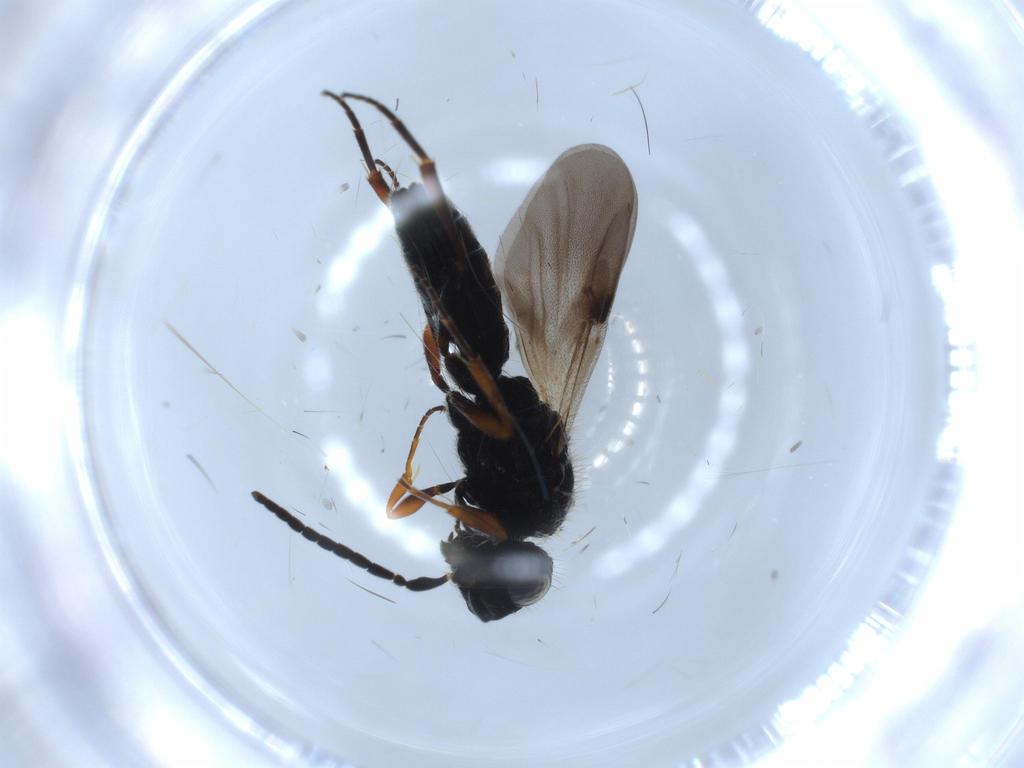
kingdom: Animalia
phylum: Arthropoda
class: Insecta
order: Hymenoptera
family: Scelionidae
